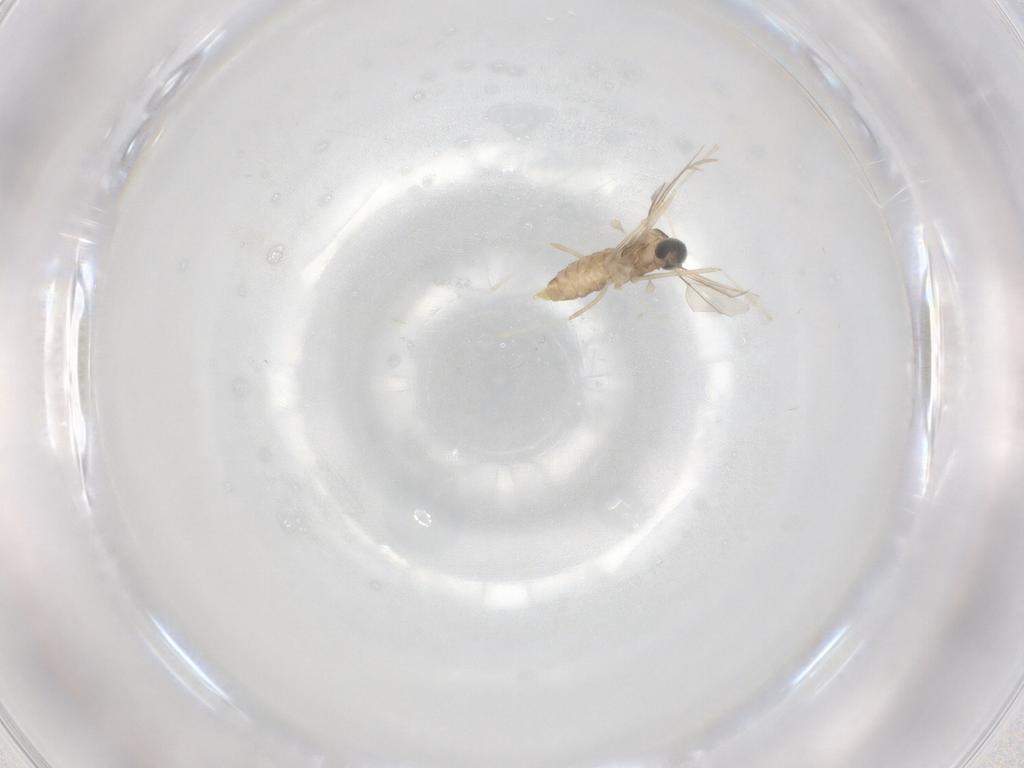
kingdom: Animalia
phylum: Arthropoda
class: Insecta
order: Diptera
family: Cecidomyiidae
